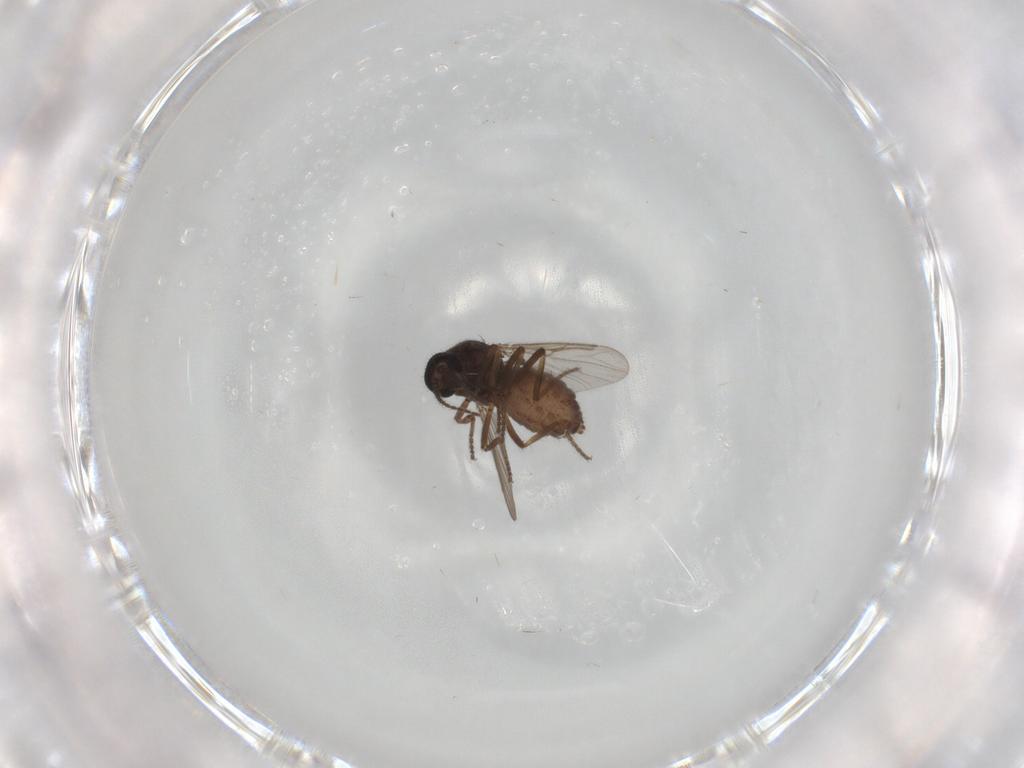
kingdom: Animalia
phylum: Arthropoda
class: Insecta
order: Diptera
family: Ceratopogonidae
